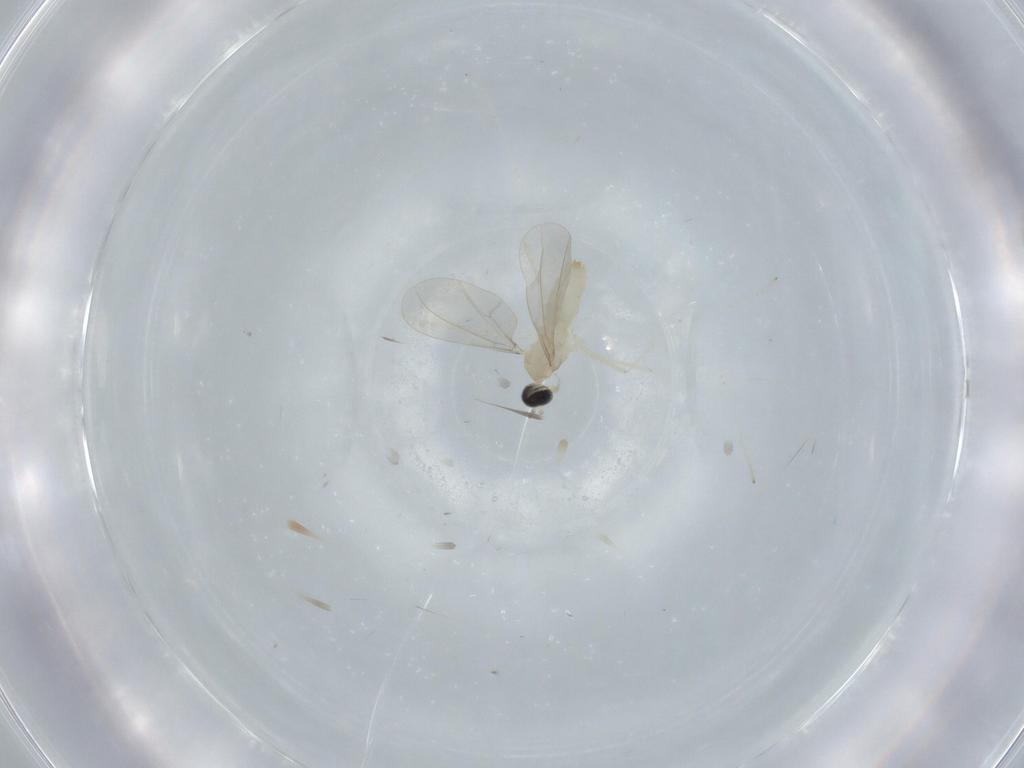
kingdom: Animalia
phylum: Arthropoda
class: Insecta
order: Diptera
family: Cecidomyiidae
